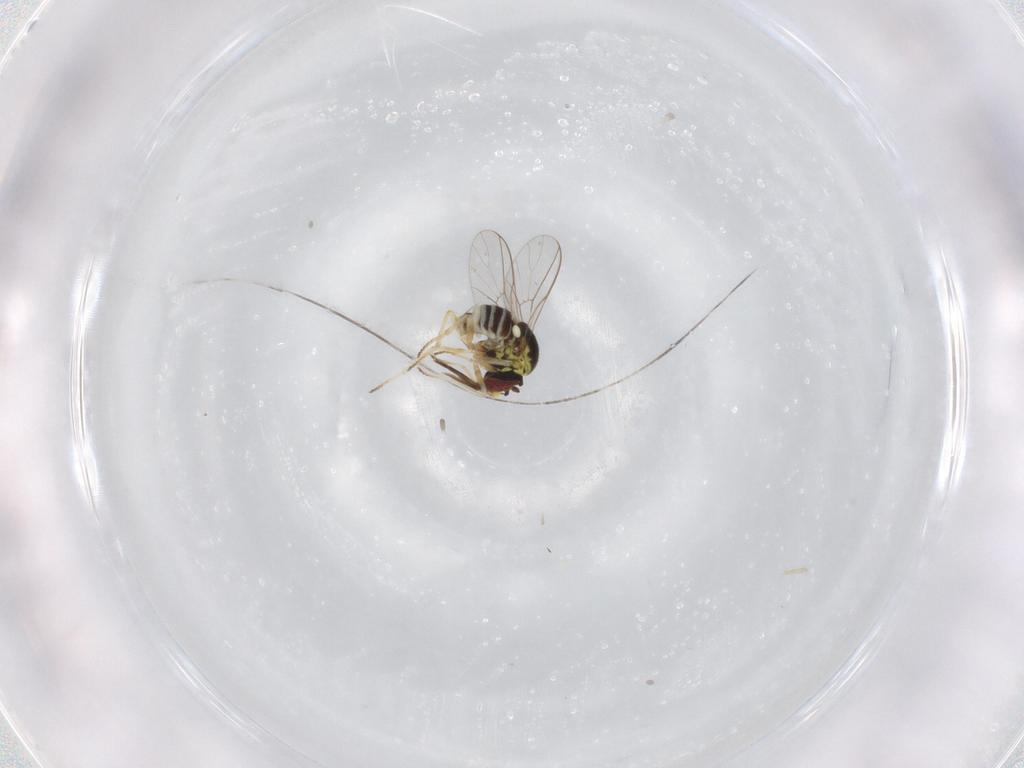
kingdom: Animalia
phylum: Arthropoda
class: Insecta
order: Diptera
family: Bombyliidae
